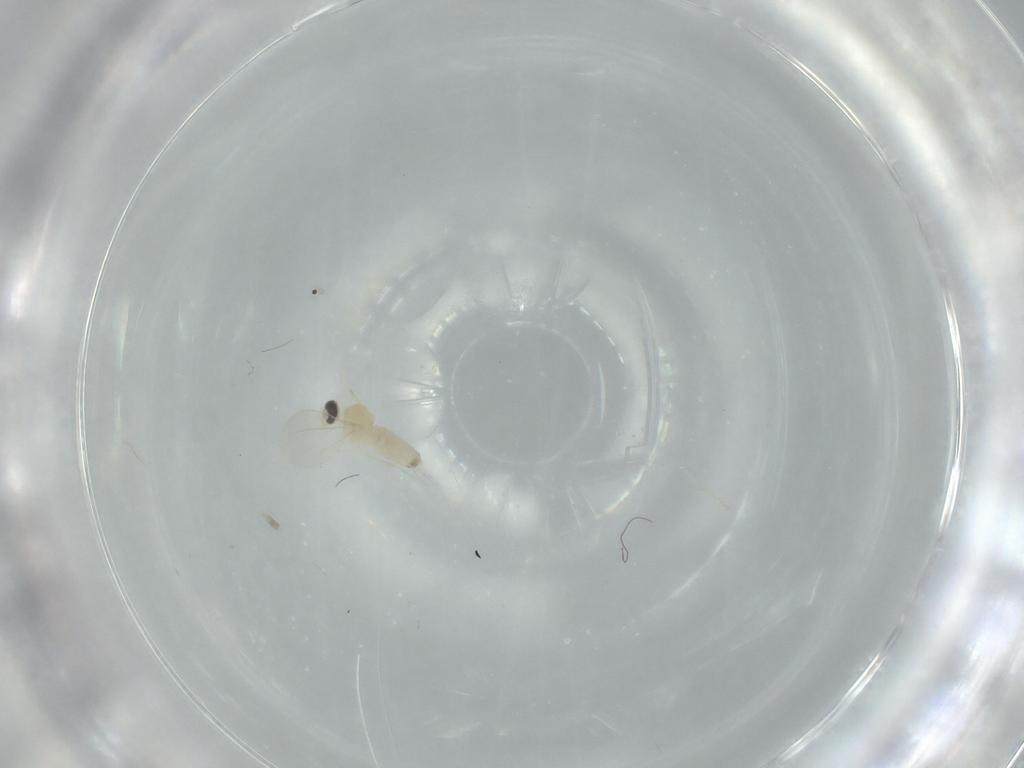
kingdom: Animalia
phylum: Arthropoda
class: Insecta
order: Diptera
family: Cecidomyiidae
